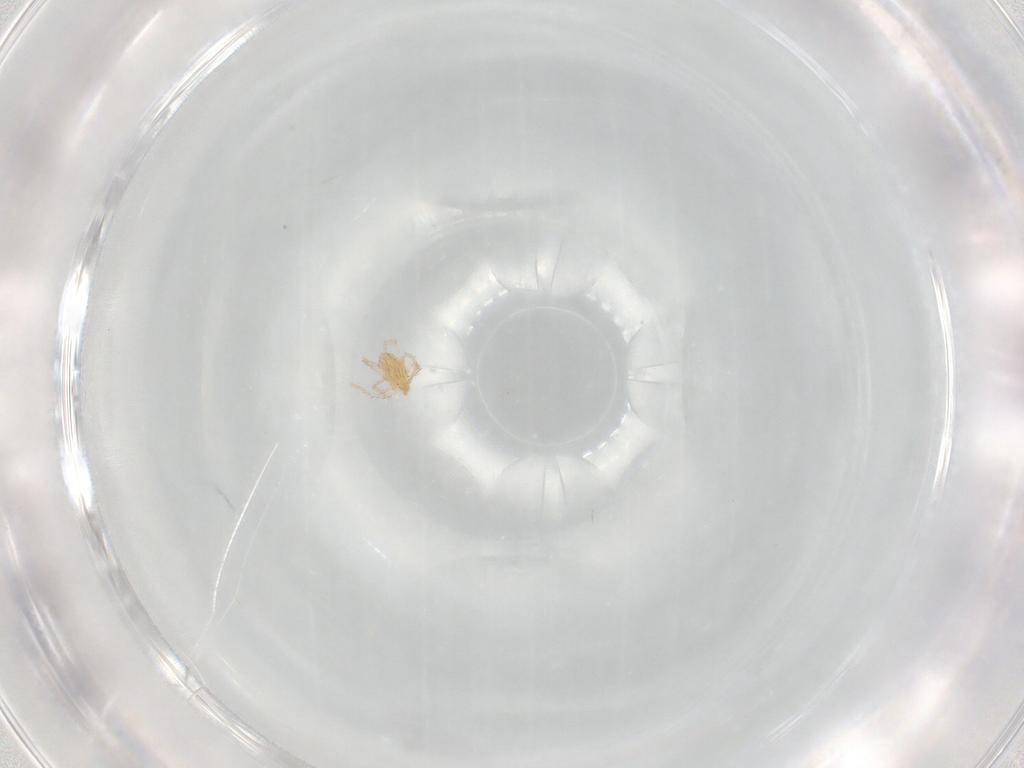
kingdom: Animalia
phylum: Arthropoda
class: Arachnida
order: Trombidiformes
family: Erythraeidae
